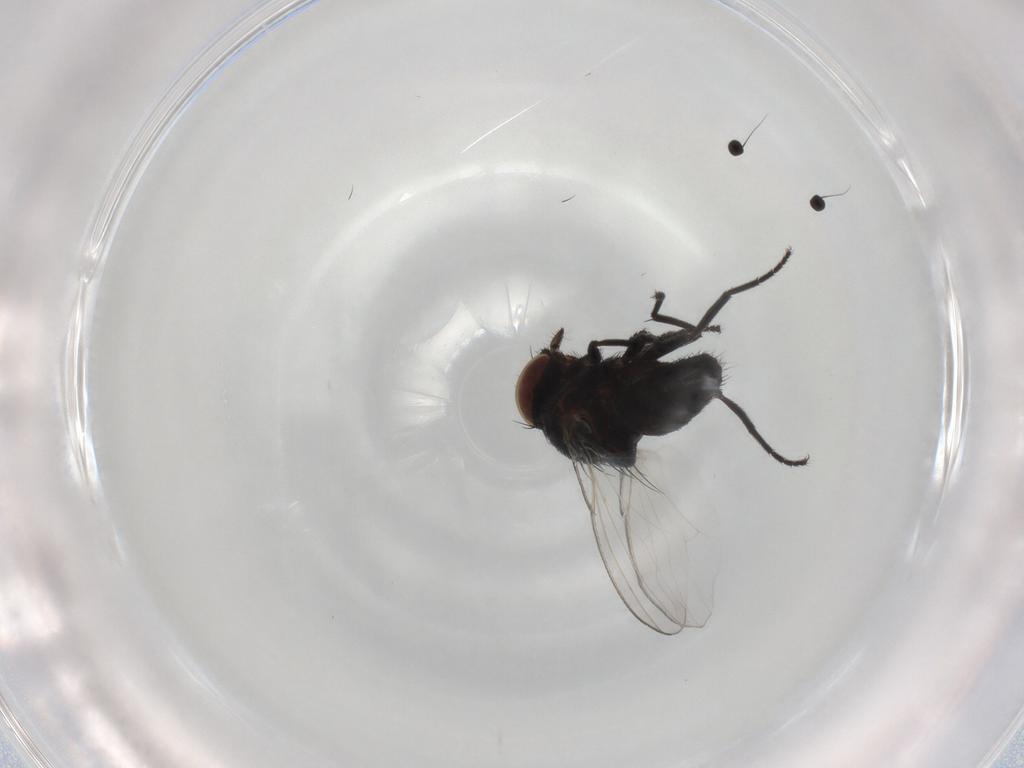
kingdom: Animalia
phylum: Arthropoda
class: Insecta
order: Diptera
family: Milichiidae
